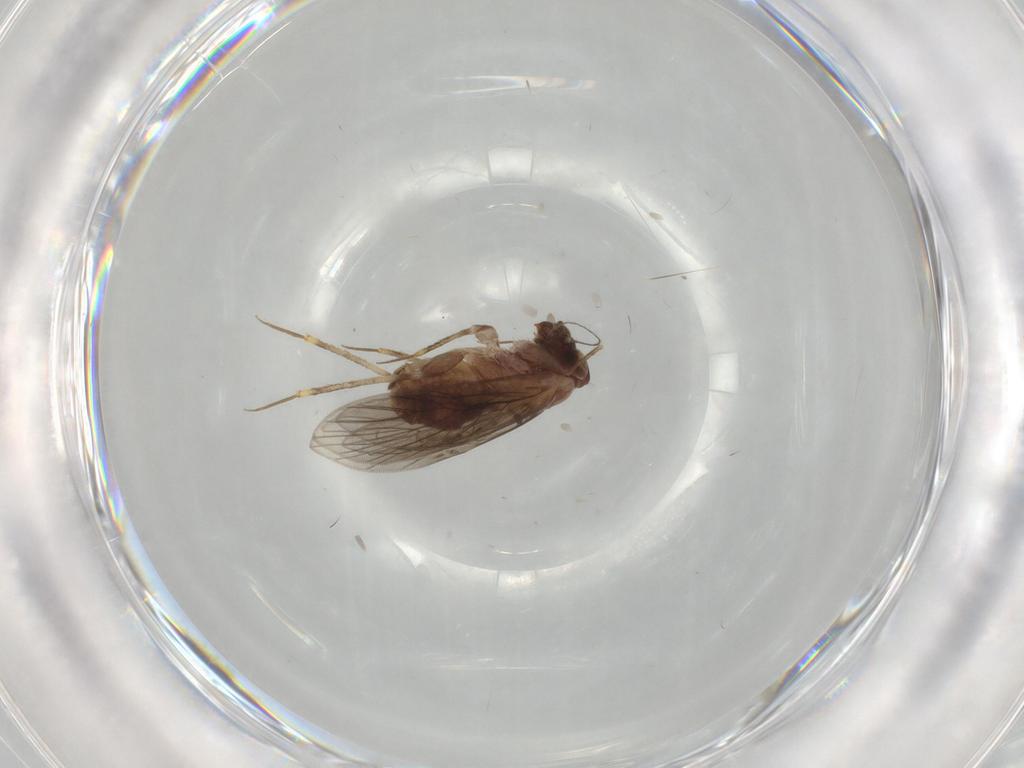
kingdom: Animalia
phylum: Arthropoda
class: Insecta
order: Psocodea
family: Lepidopsocidae
